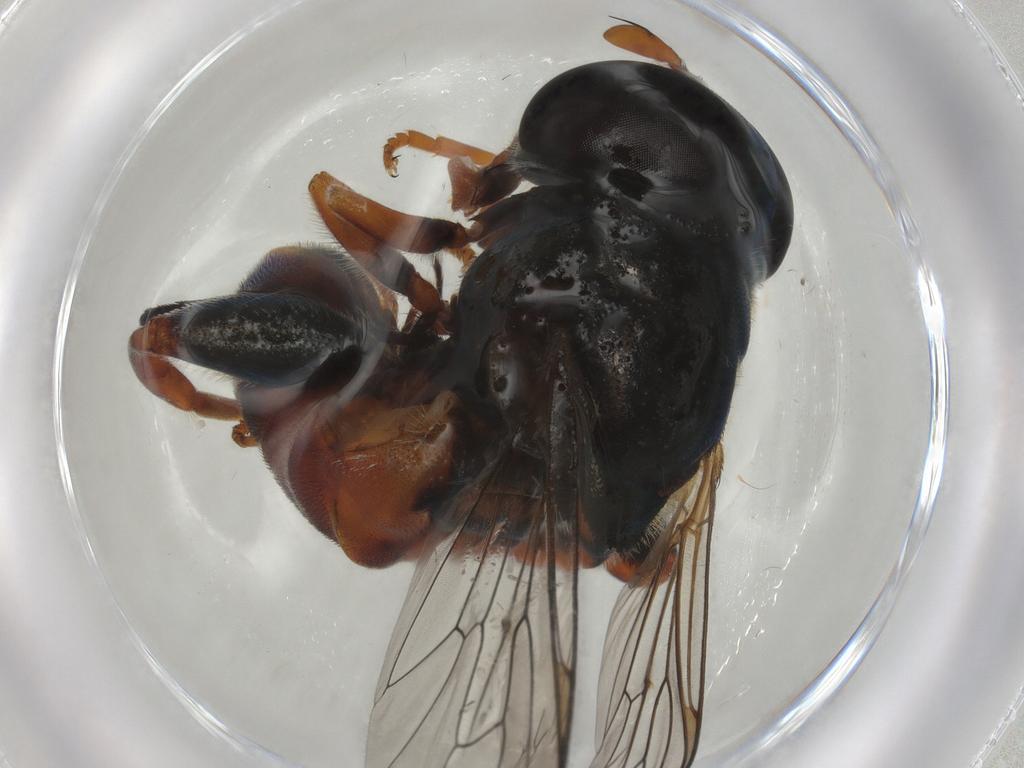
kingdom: Animalia
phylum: Arthropoda
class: Insecta
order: Diptera
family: Syrphidae
